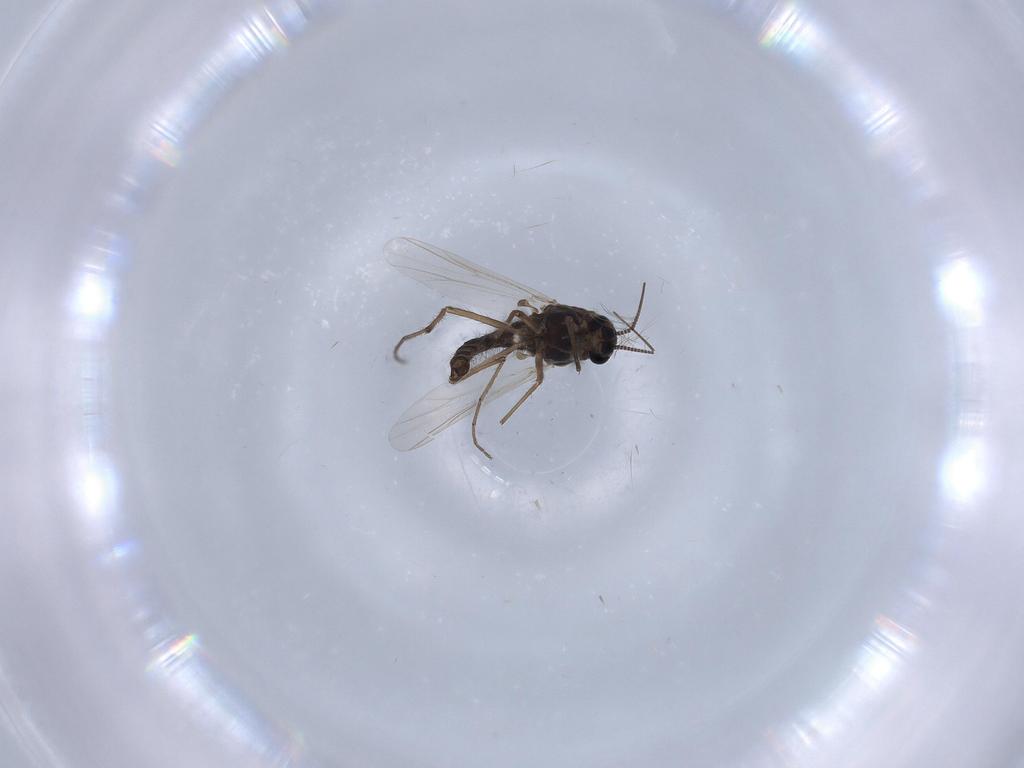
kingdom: Animalia
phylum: Arthropoda
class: Insecta
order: Diptera
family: Chironomidae
